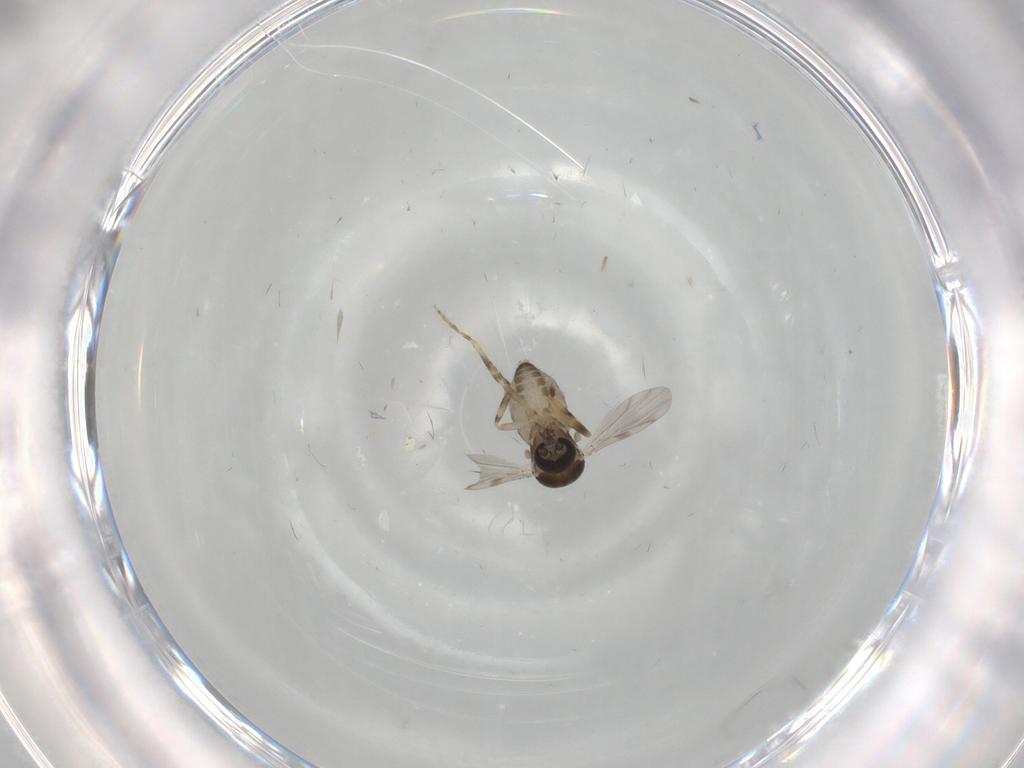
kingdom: Animalia
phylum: Arthropoda
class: Insecta
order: Diptera
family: Ceratopogonidae
